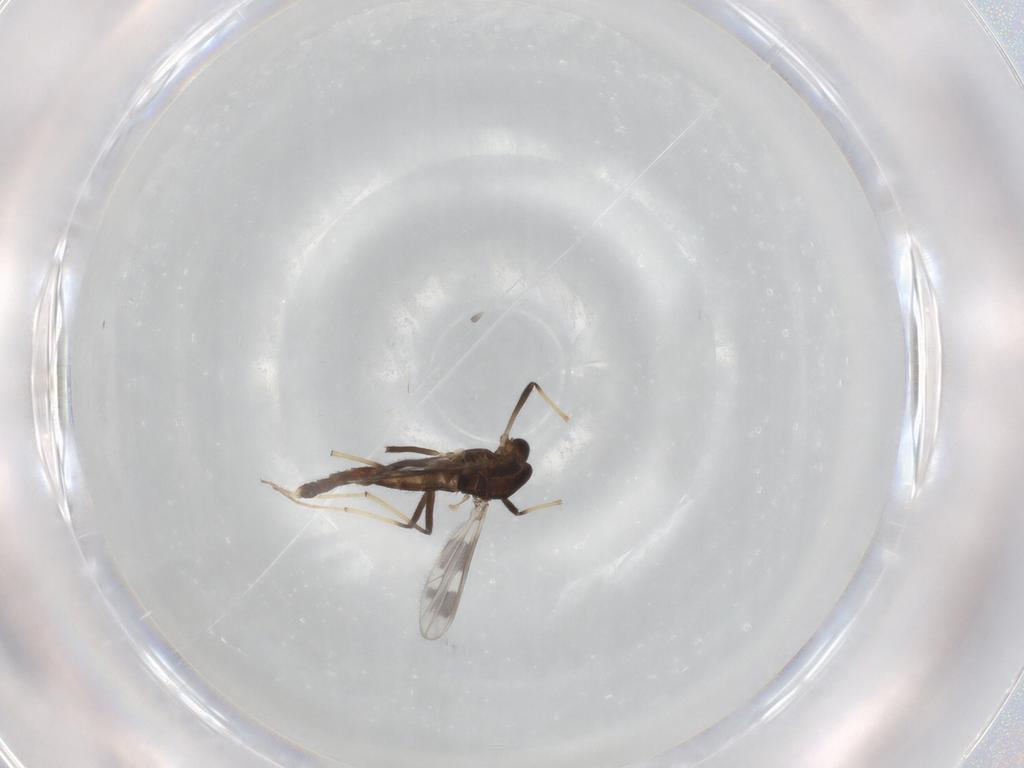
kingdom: Animalia
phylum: Arthropoda
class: Insecta
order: Diptera
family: Chironomidae
